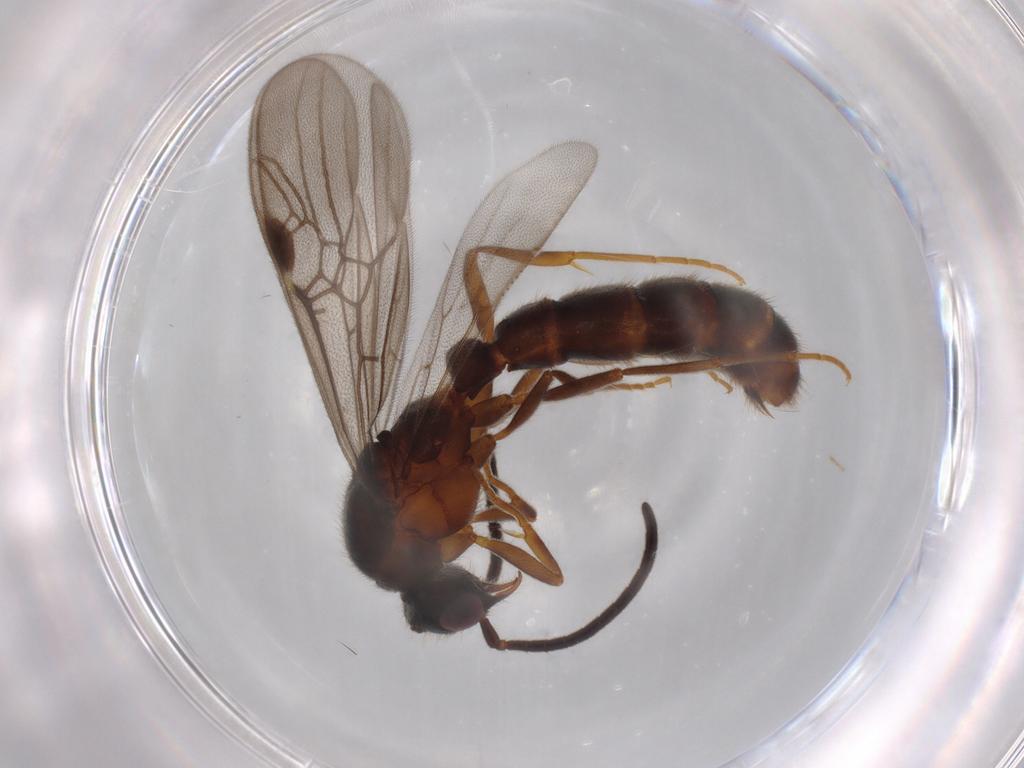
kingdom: Animalia
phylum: Arthropoda
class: Insecta
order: Hymenoptera
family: Formicidae
